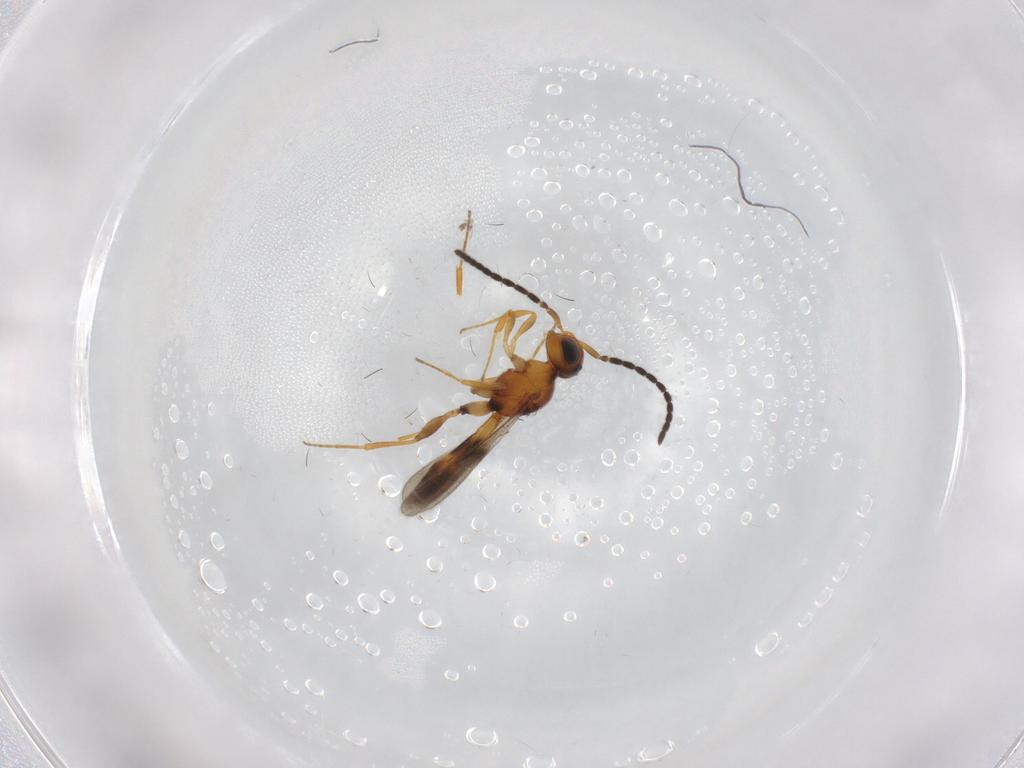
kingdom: Animalia
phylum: Arthropoda
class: Insecta
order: Hymenoptera
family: Scelionidae
